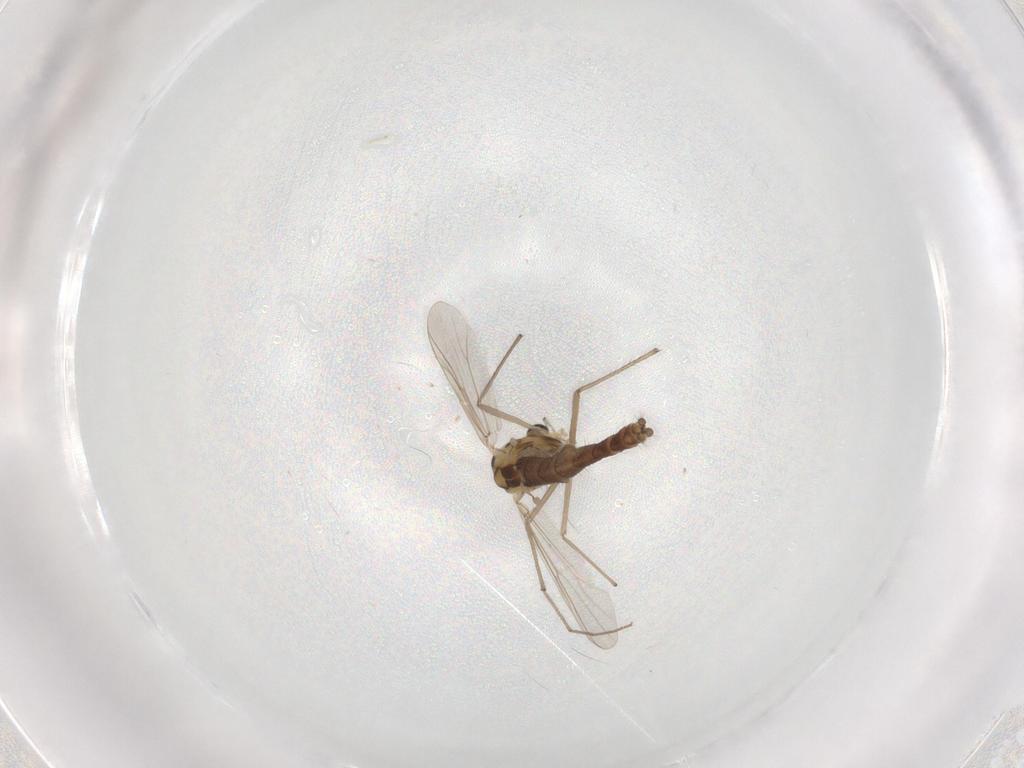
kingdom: Animalia
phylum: Arthropoda
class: Insecta
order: Diptera
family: Chironomidae
